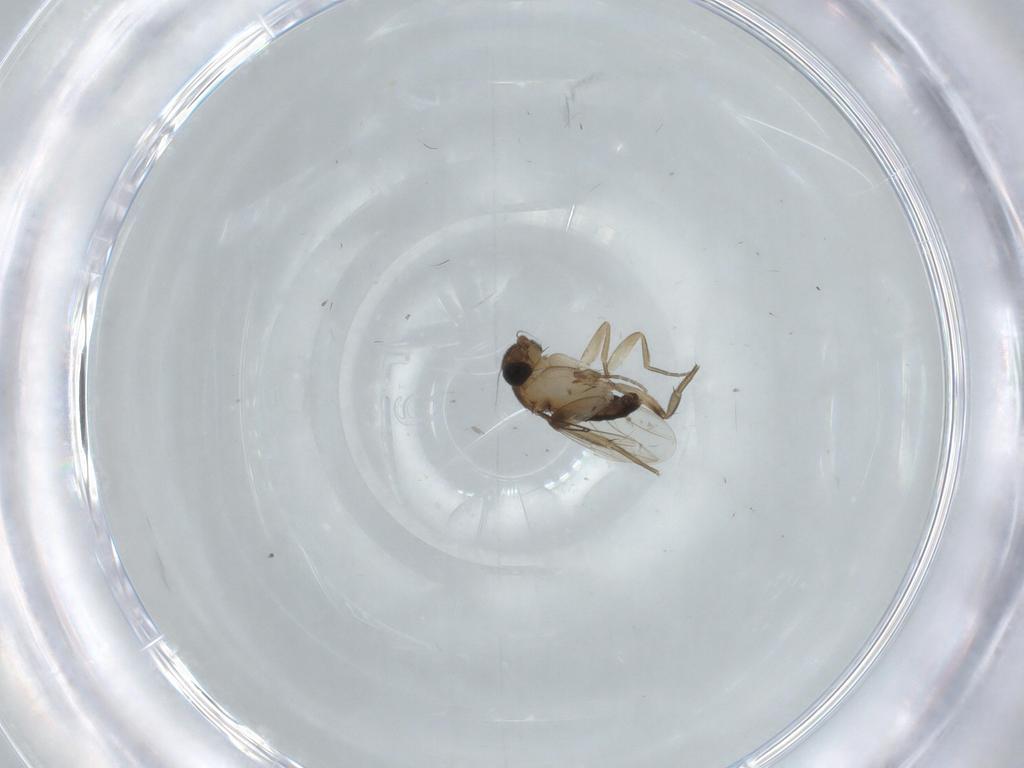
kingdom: Animalia
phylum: Arthropoda
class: Insecta
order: Diptera
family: Phoridae
